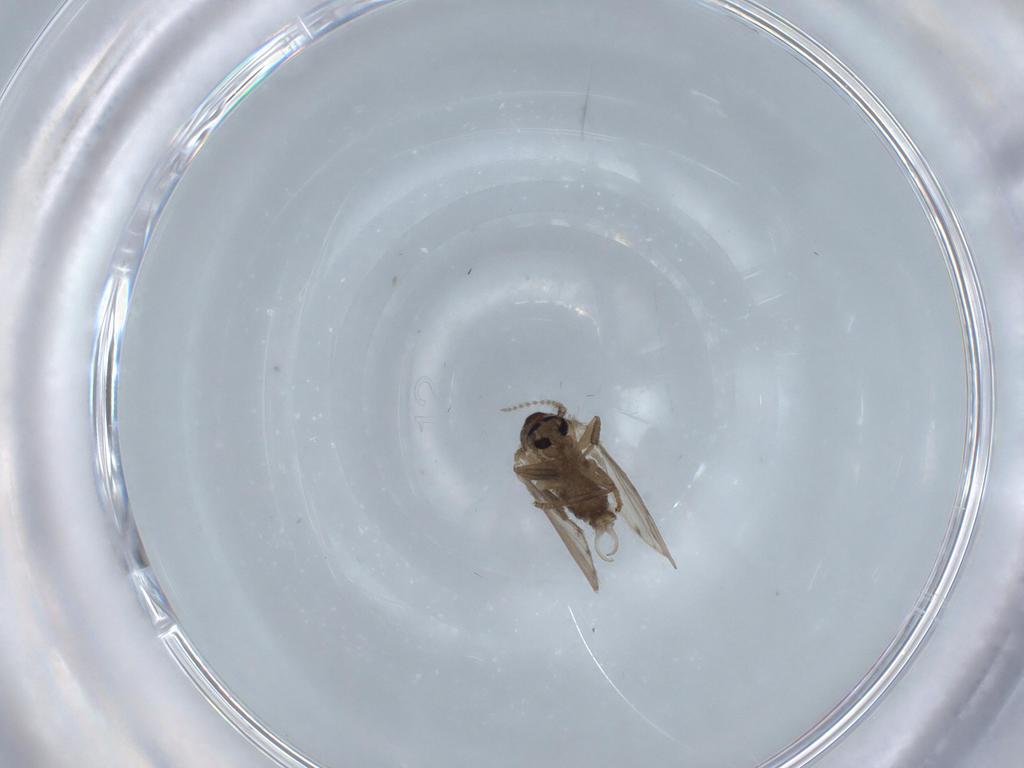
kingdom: Animalia
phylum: Arthropoda
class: Insecta
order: Diptera
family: Psychodidae
